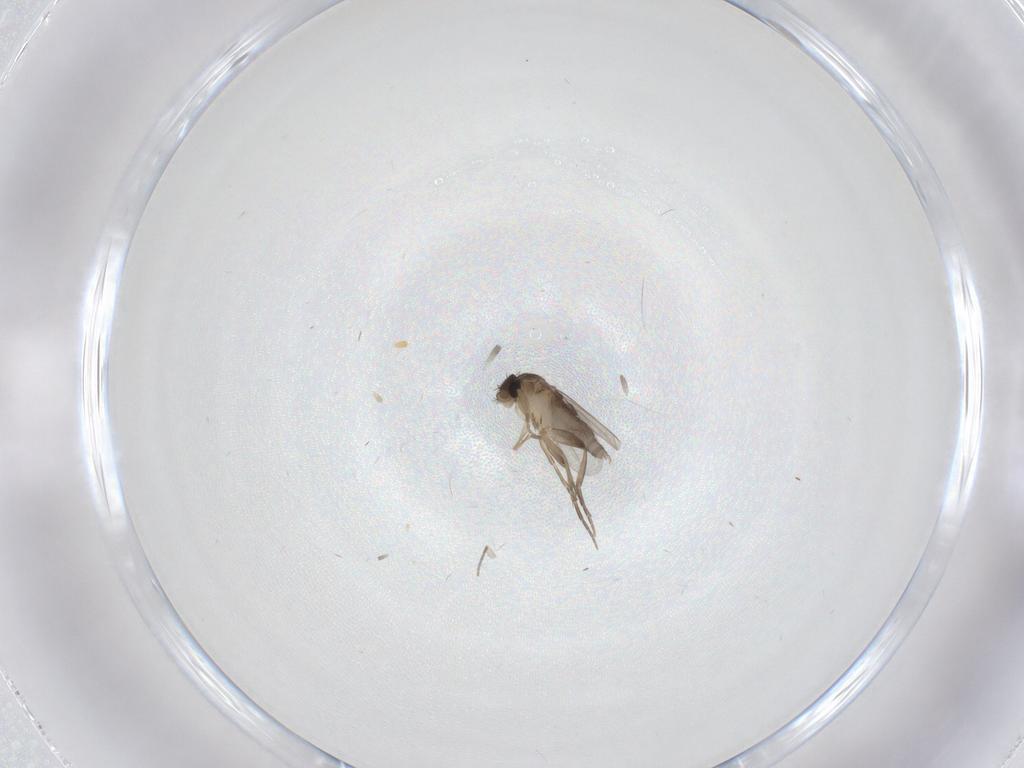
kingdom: Animalia
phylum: Arthropoda
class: Insecta
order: Diptera
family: Phoridae
